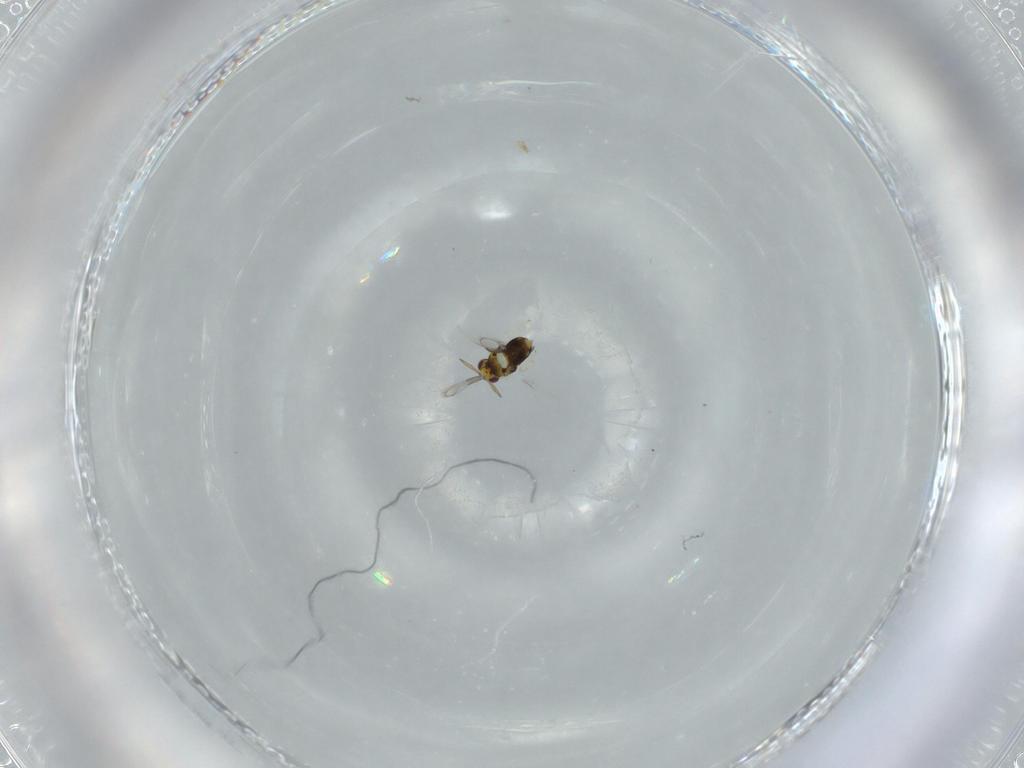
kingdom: Animalia
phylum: Arthropoda
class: Insecta
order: Hymenoptera
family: Aphelinidae
